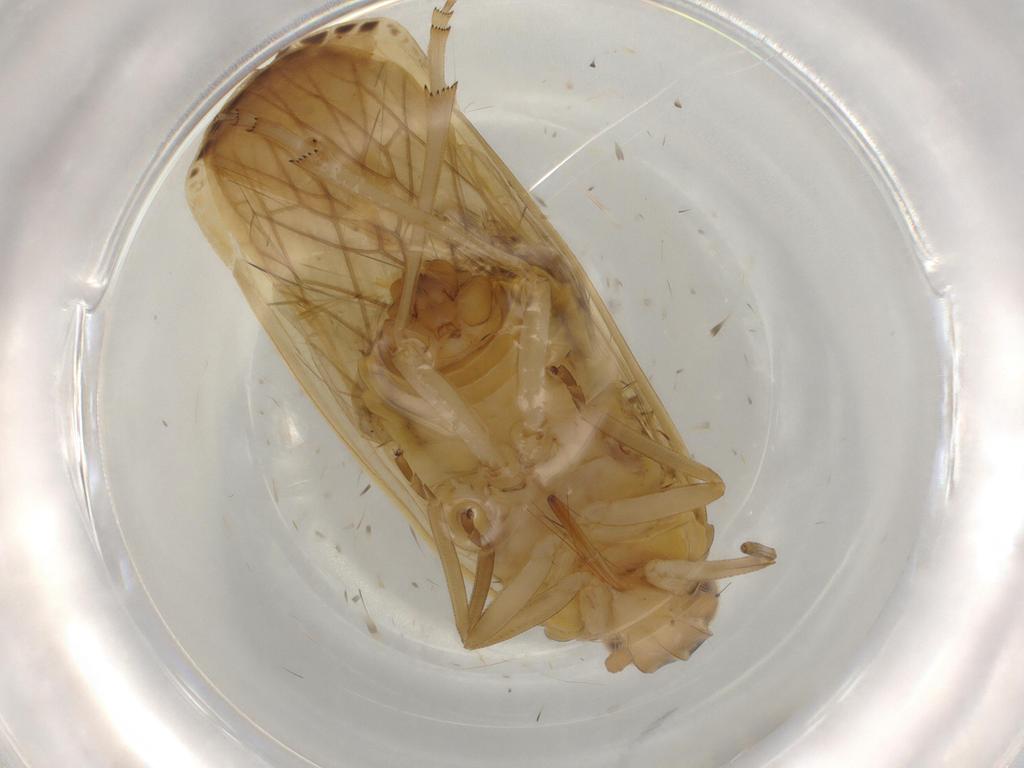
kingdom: Animalia
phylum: Arthropoda
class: Insecta
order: Hemiptera
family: Achilidae
